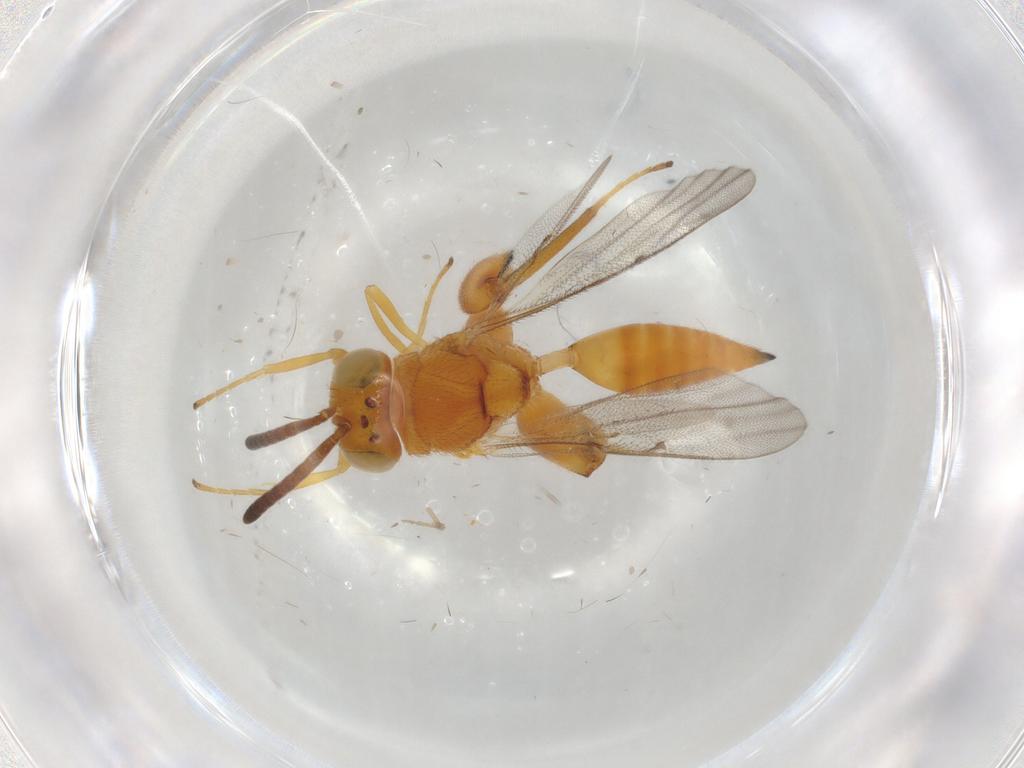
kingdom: Animalia
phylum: Arthropoda
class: Insecta
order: Hymenoptera
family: Chalcididae
